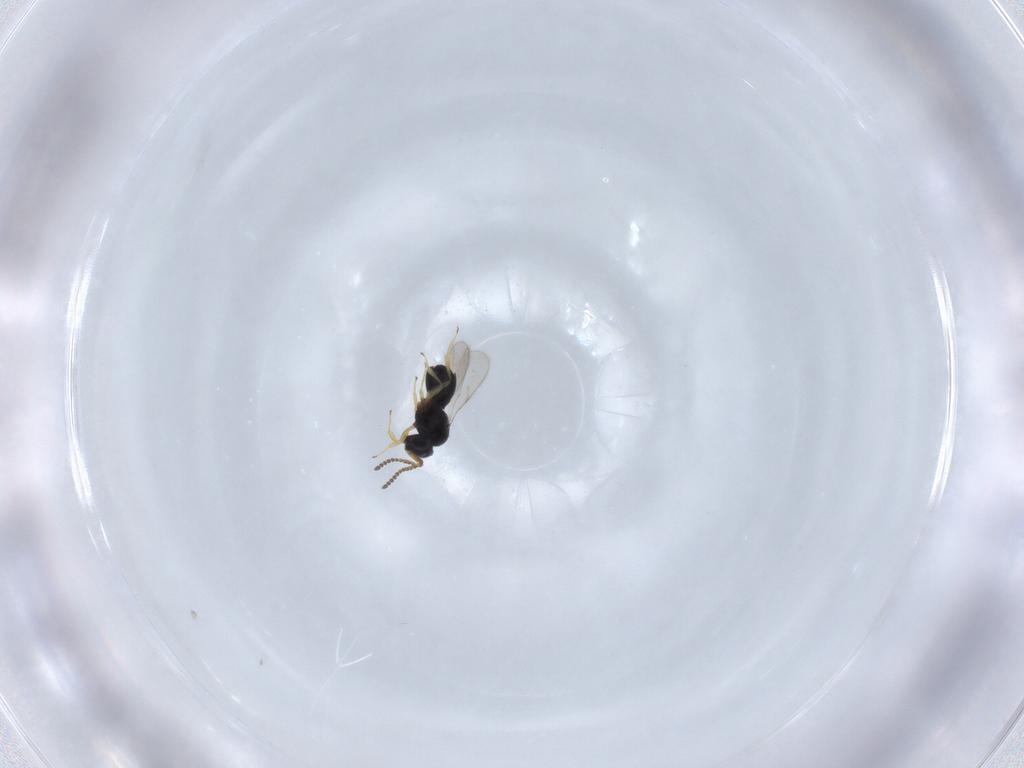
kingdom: Animalia
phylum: Arthropoda
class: Insecta
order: Hymenoptera
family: Scelionidae
